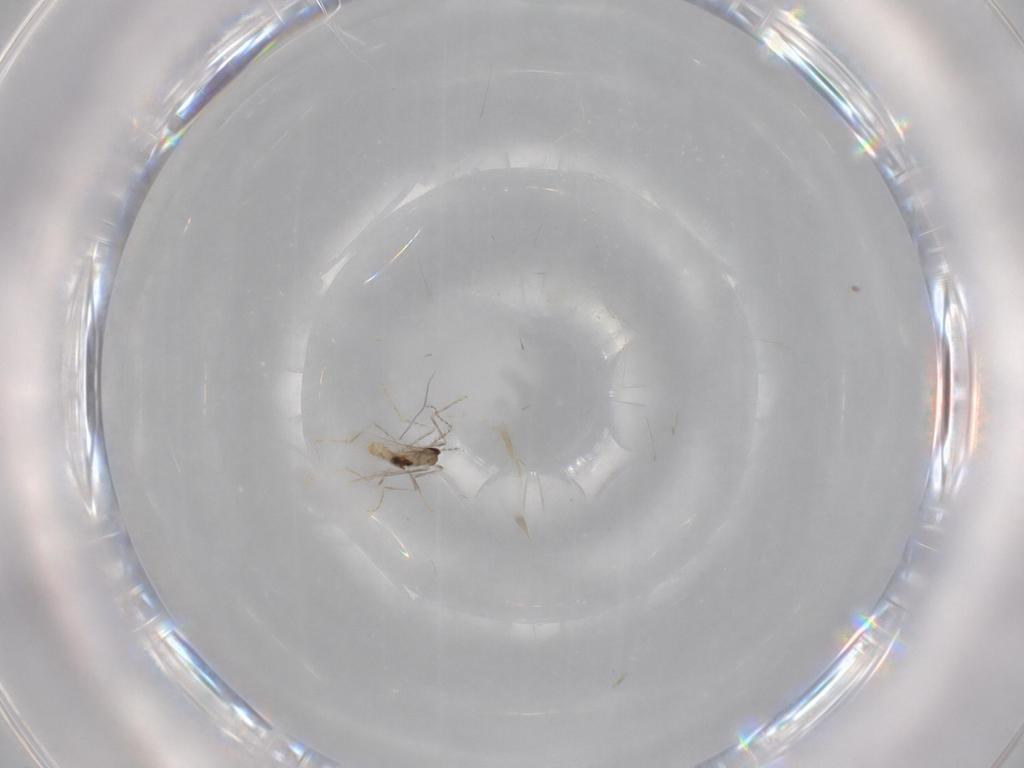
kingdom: Animalia
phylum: Arthropoda
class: Insecta
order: Diptera
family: Cecidomyiidae
